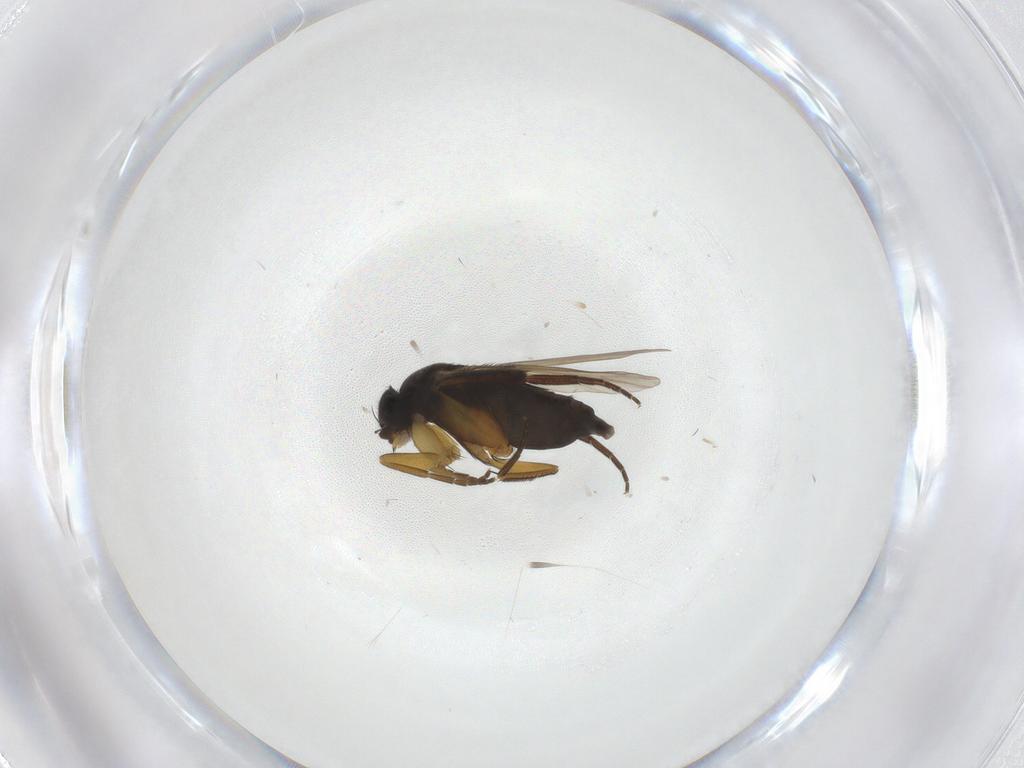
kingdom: Animalia
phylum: Arthropoda
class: Insecta
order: Diptera
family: Phoridae
